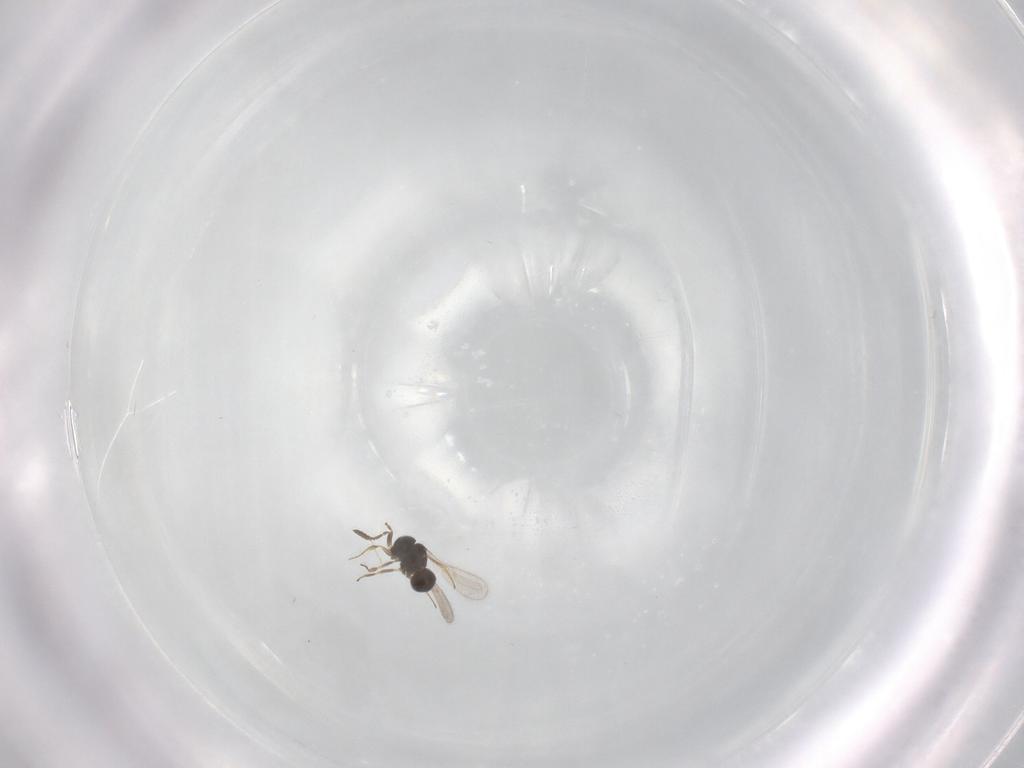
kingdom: Animalia
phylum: Arthropoda
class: Insecta
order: Hymenoptera
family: Scelionidae
